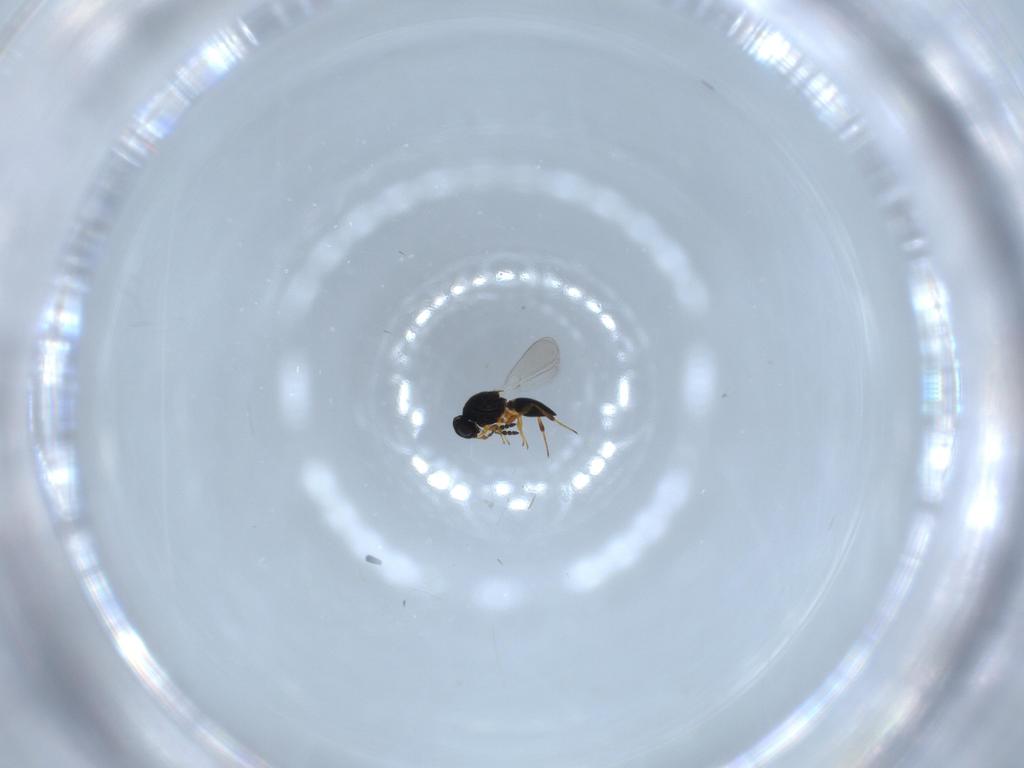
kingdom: Animalia
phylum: Arthropoda
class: Insecta
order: Hymenoptera
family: Platygastridae
